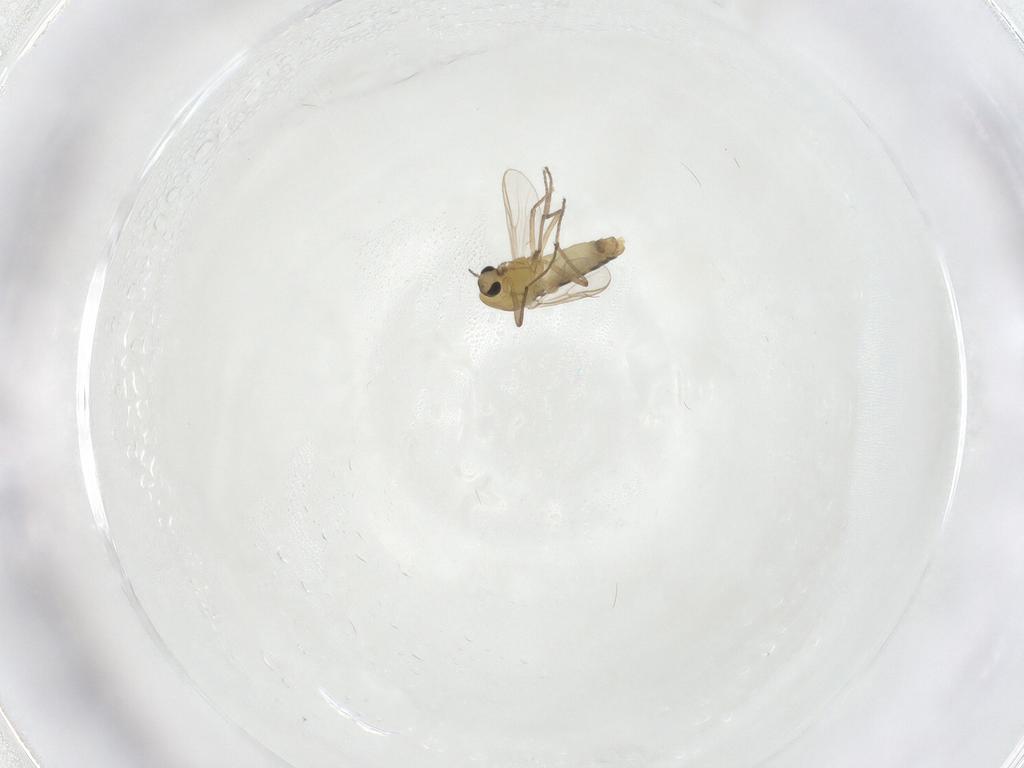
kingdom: Animalia
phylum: Arthropoda
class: Insecta
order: Diptera
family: Chironomidae
